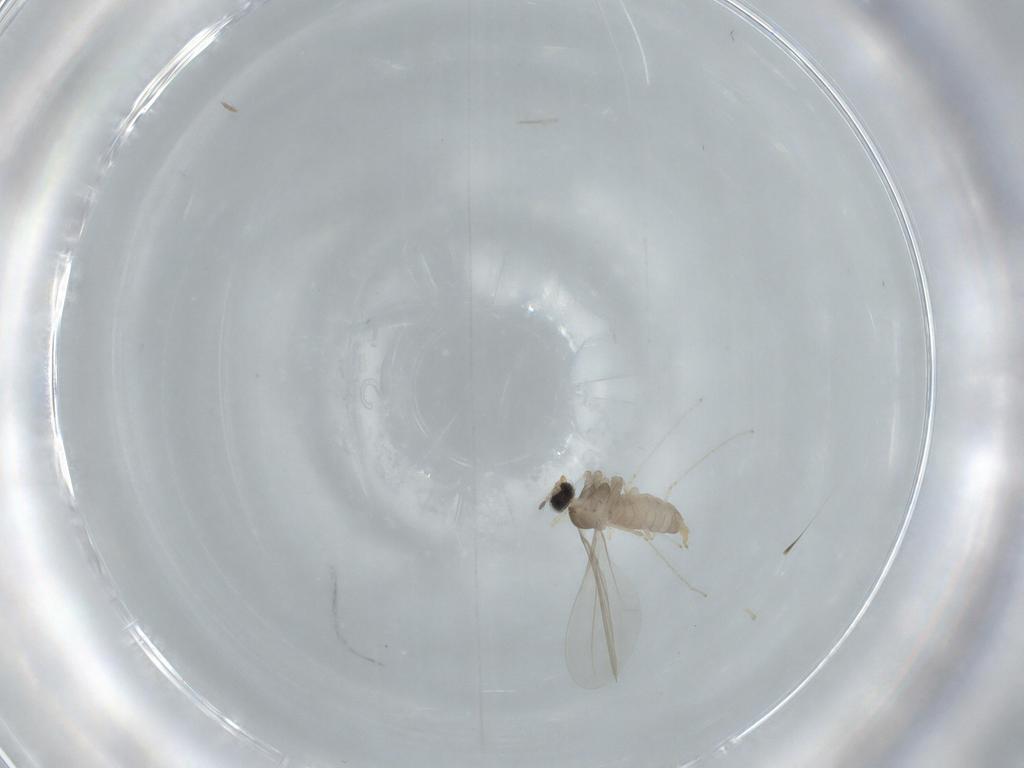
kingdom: Animalia
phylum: Arthropoda
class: Insecta
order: Diptera
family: Cecidomyiidae
